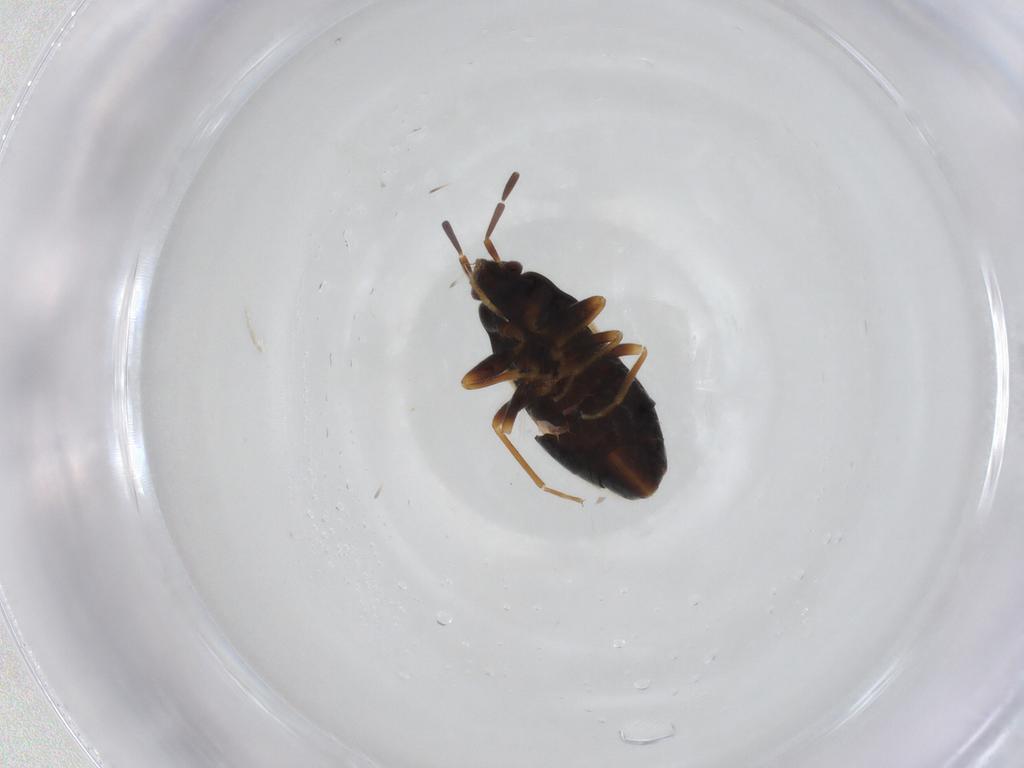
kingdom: Animalia
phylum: Arthropoda
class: Insecta
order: Hemiptera
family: Rhyparochromidae
